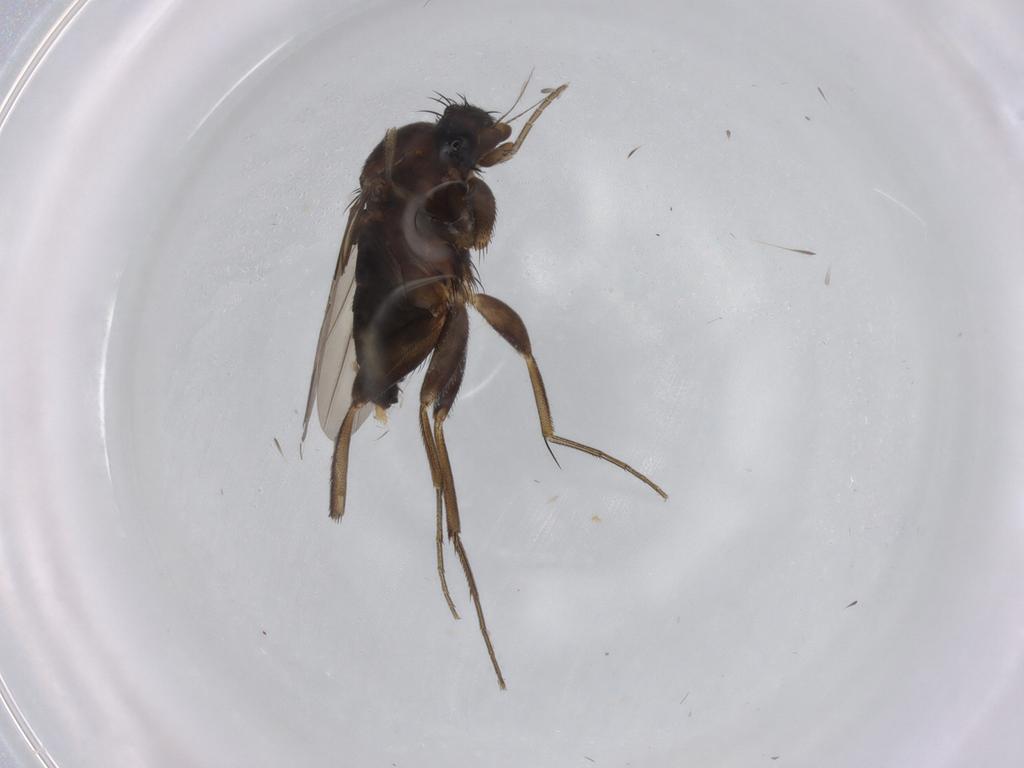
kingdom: Animalia
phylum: Arthropoda
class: Insecta
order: Diptera
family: Phoridae
